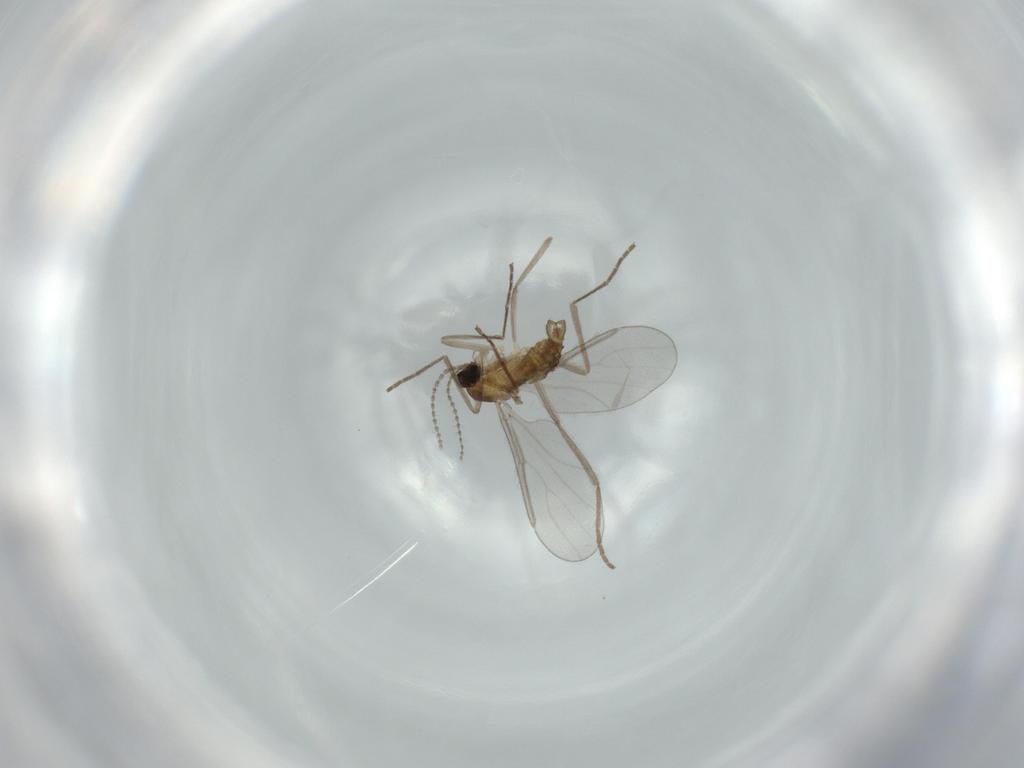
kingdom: Animalia
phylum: Arthropoda
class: Insecta
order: Diptera
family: Cecidomyiidae
